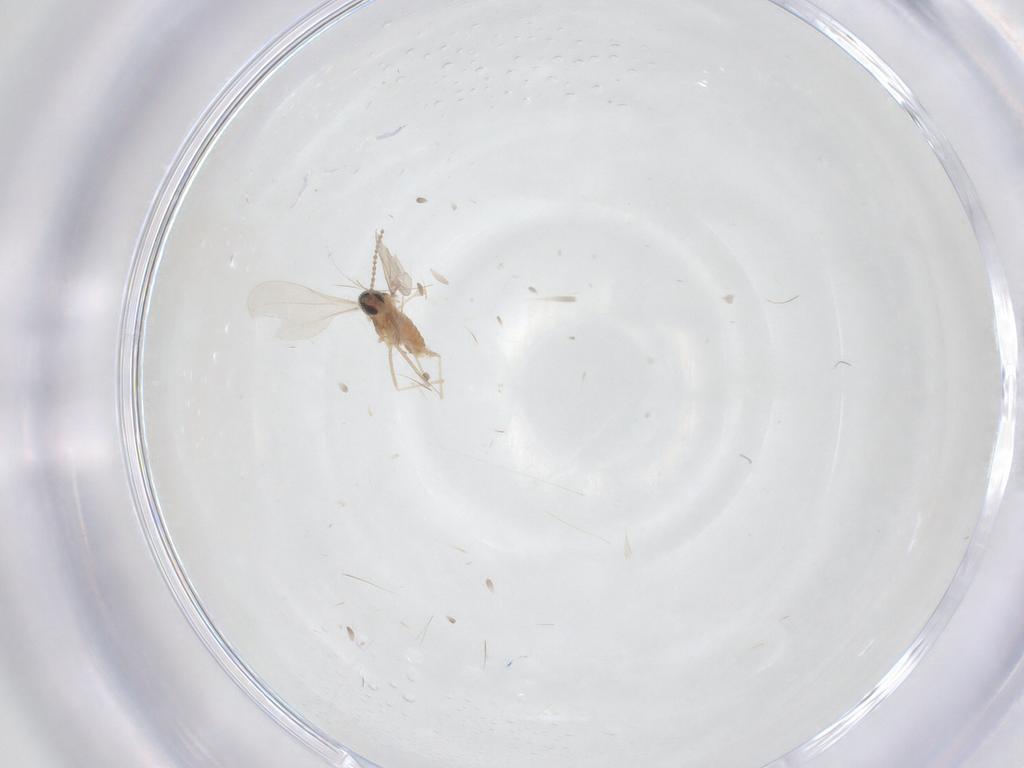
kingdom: Animalia
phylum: Arthropoda
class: Insecta
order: Diptera
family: Cecidomyiidae
